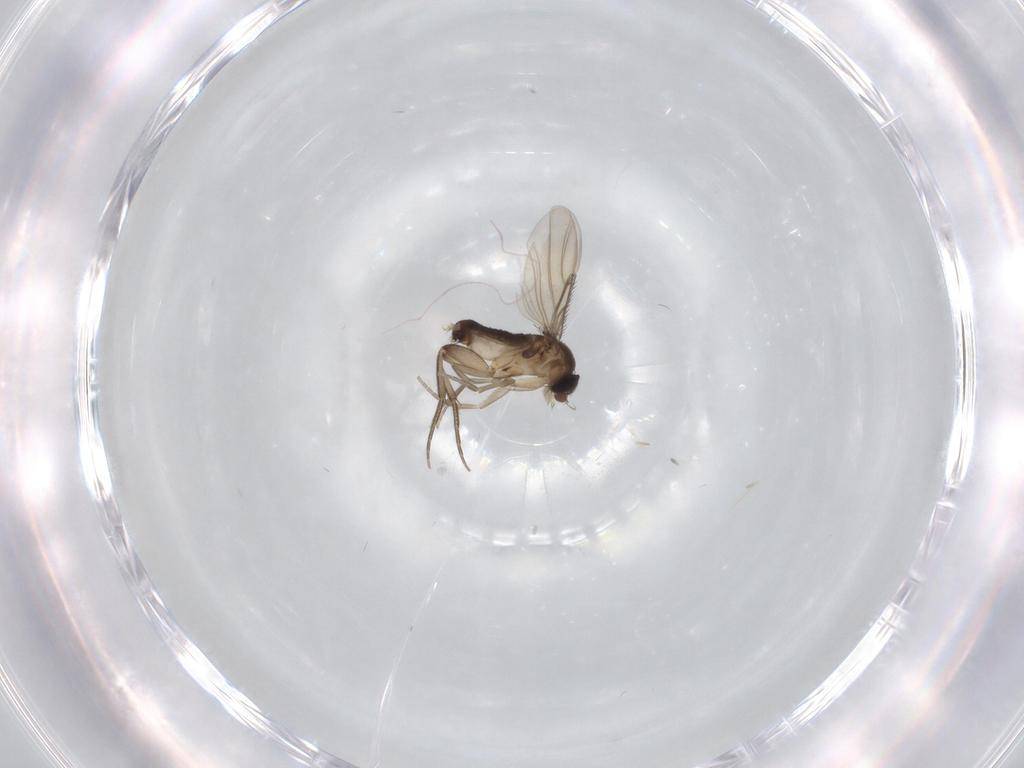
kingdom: Animalia
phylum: Arthropoda
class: Insecta
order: Diptera
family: Phoridae
